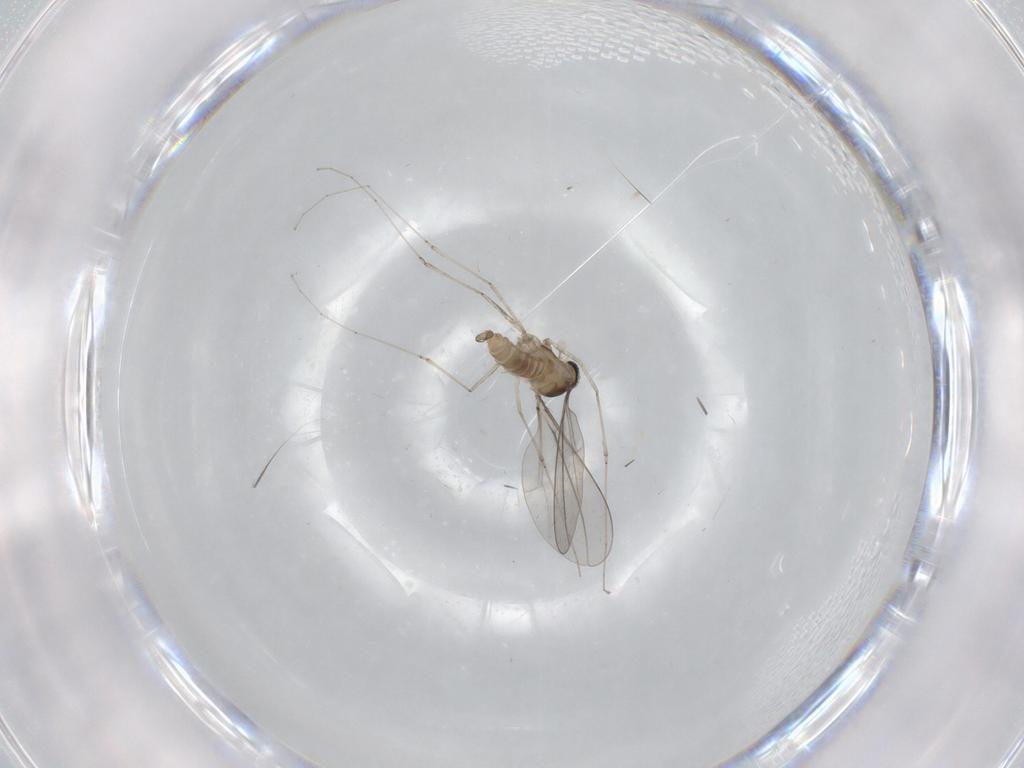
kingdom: Animalia
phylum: Arthropoda
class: Insecta
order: Diptera
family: Cecidomyiidae
